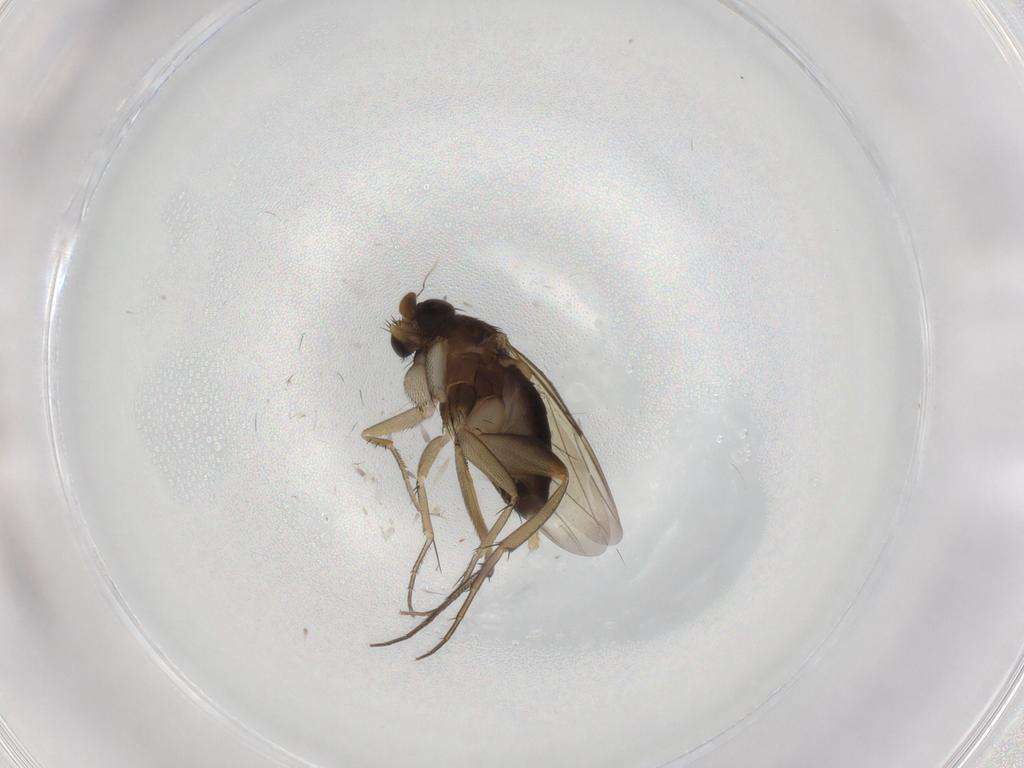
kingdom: Animalia
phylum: Arthropoda
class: Insecta
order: Diptera
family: Phoridae
